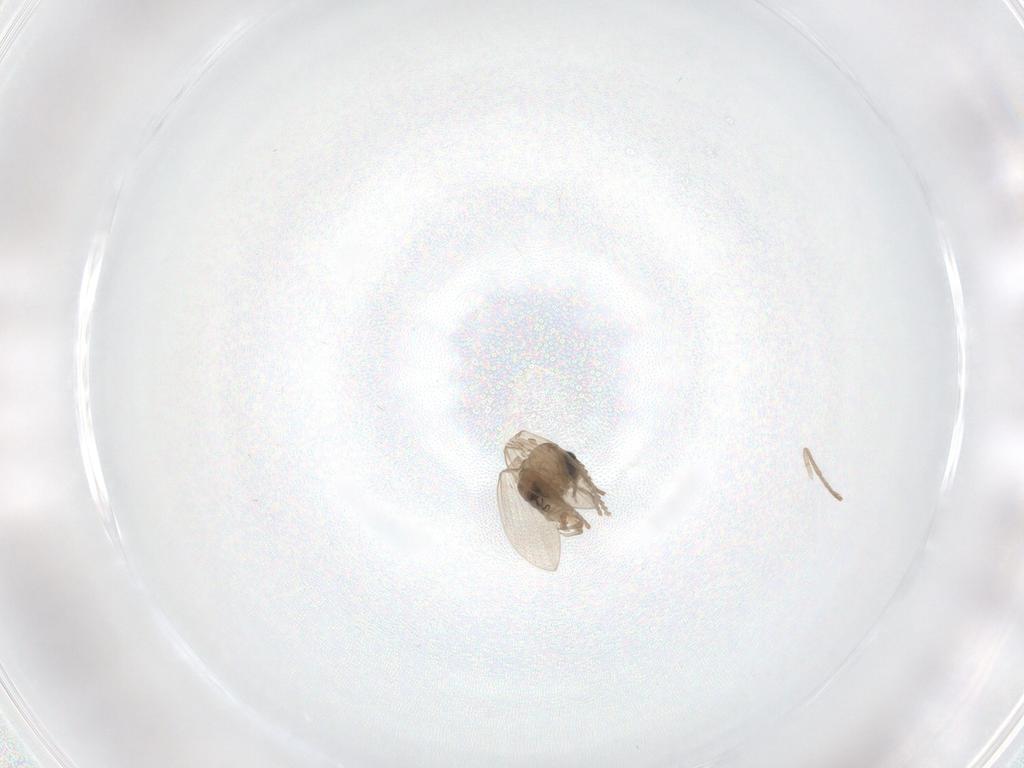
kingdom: Animalia
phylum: Arthropoda
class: Insecta
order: Diptera
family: Psychodidae
